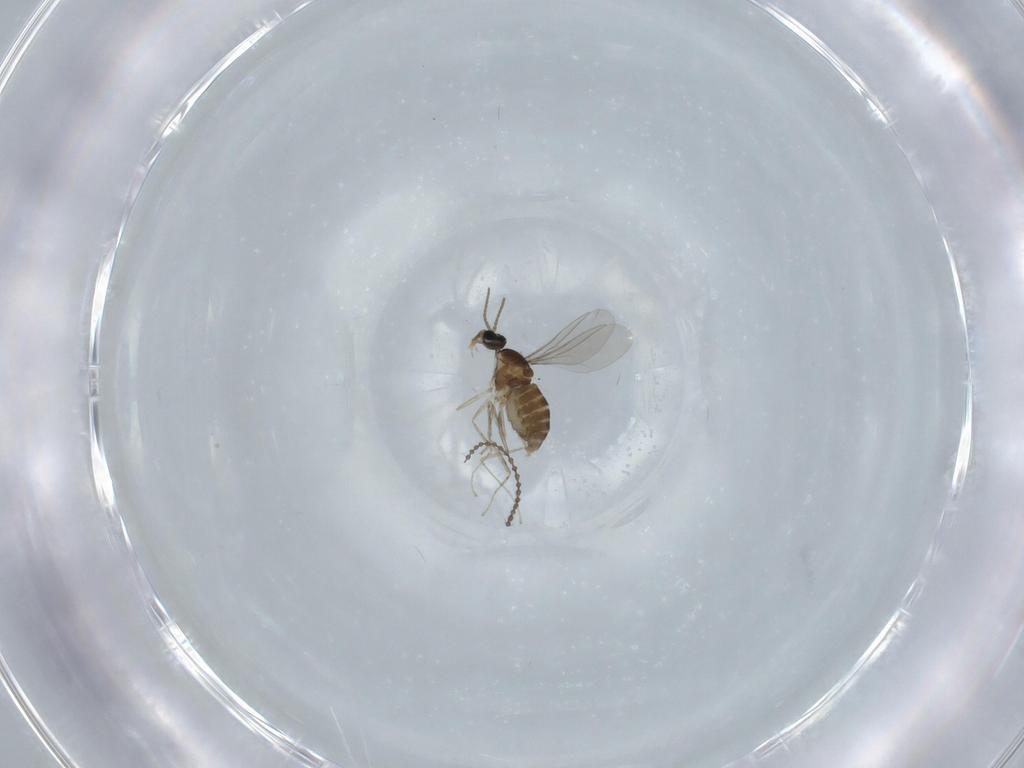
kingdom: Animalia
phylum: Arthropoda
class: Insecta
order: Diptera
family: Cecidomyiidae
